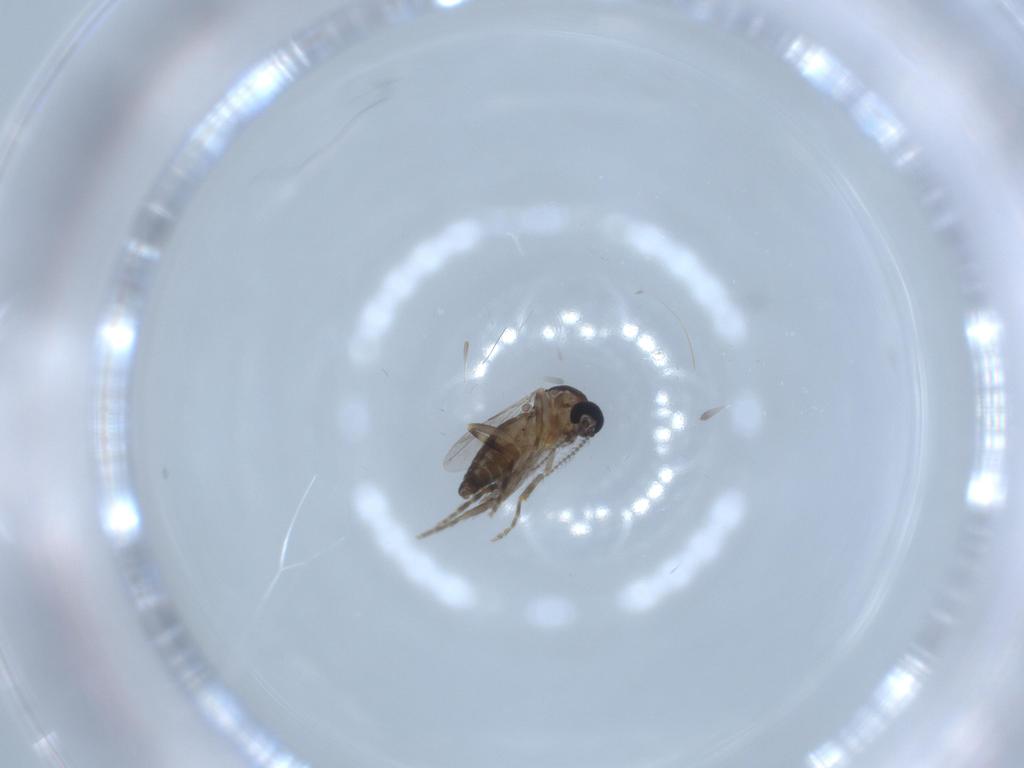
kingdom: Animalia
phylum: Arthropoda
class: Insecta
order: Diptera
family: Ceratopogonidae
